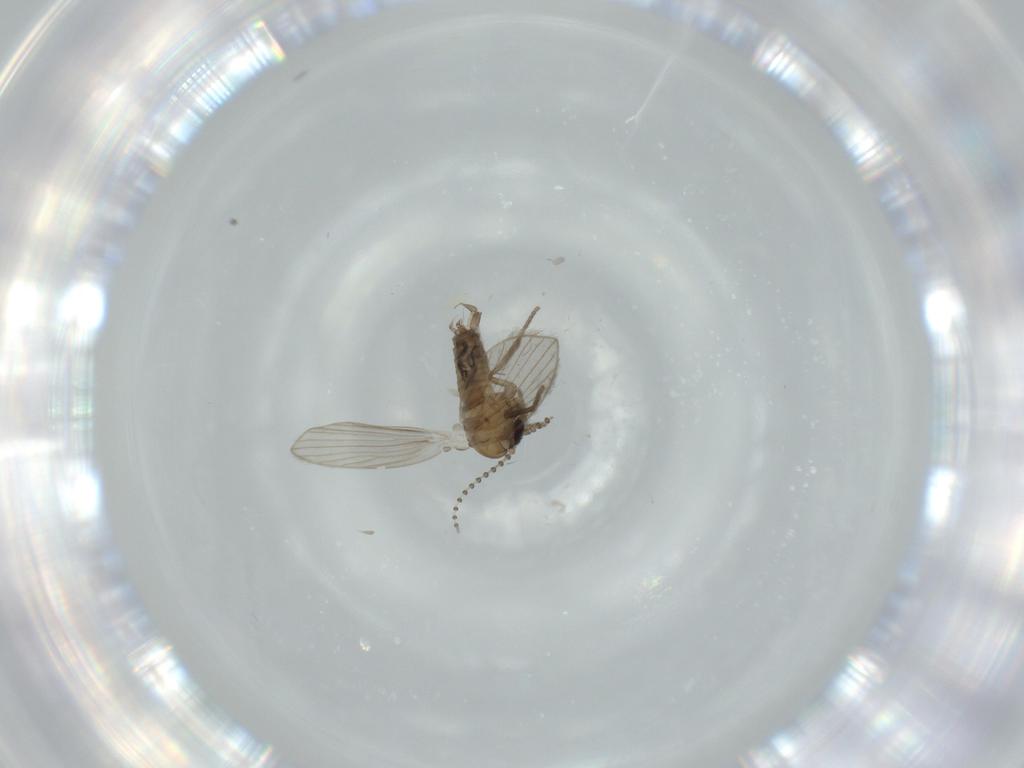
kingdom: Animalia
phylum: Arthropoda
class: Insecta
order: Diptera
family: Psychodidae
